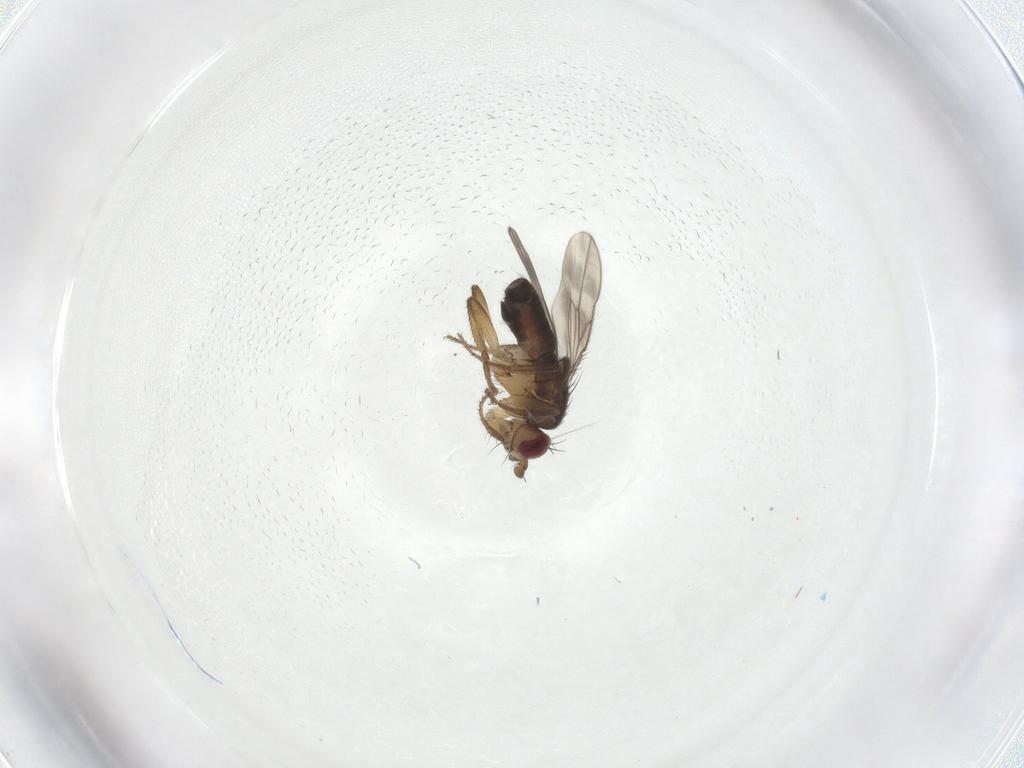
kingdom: Animalia
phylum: Arthropoda
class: Insecta
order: Diptera
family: Sphaeroceridae
